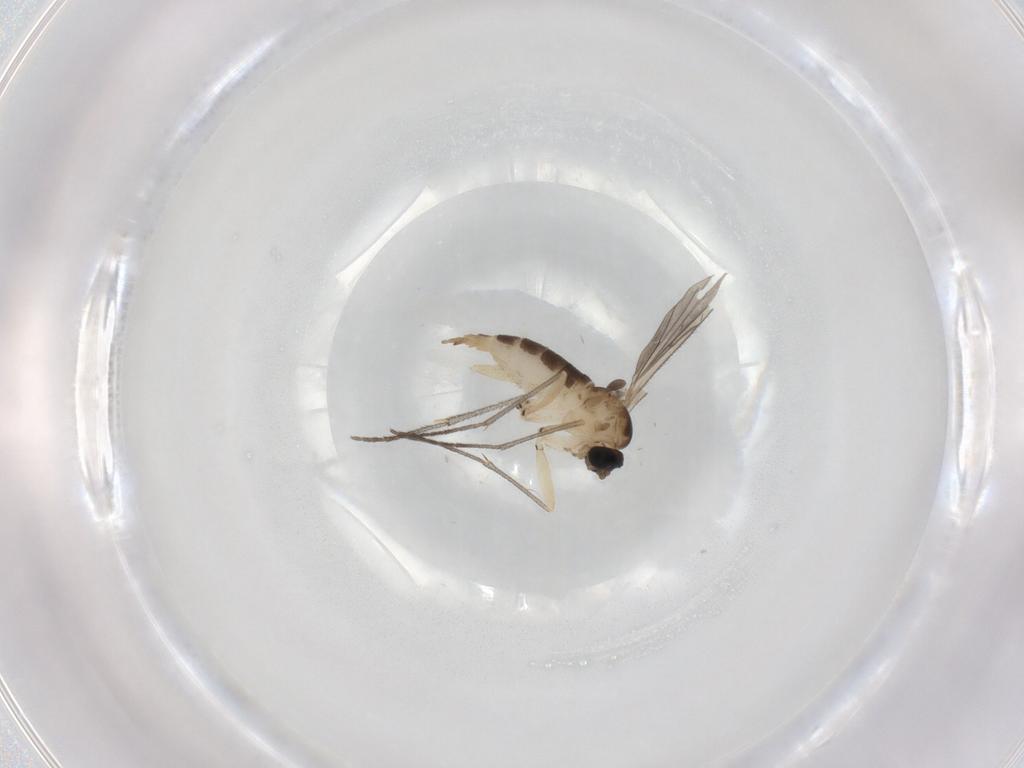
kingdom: Animalia
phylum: Arthropoda
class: Insecta
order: Diptera
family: Sciaridae
